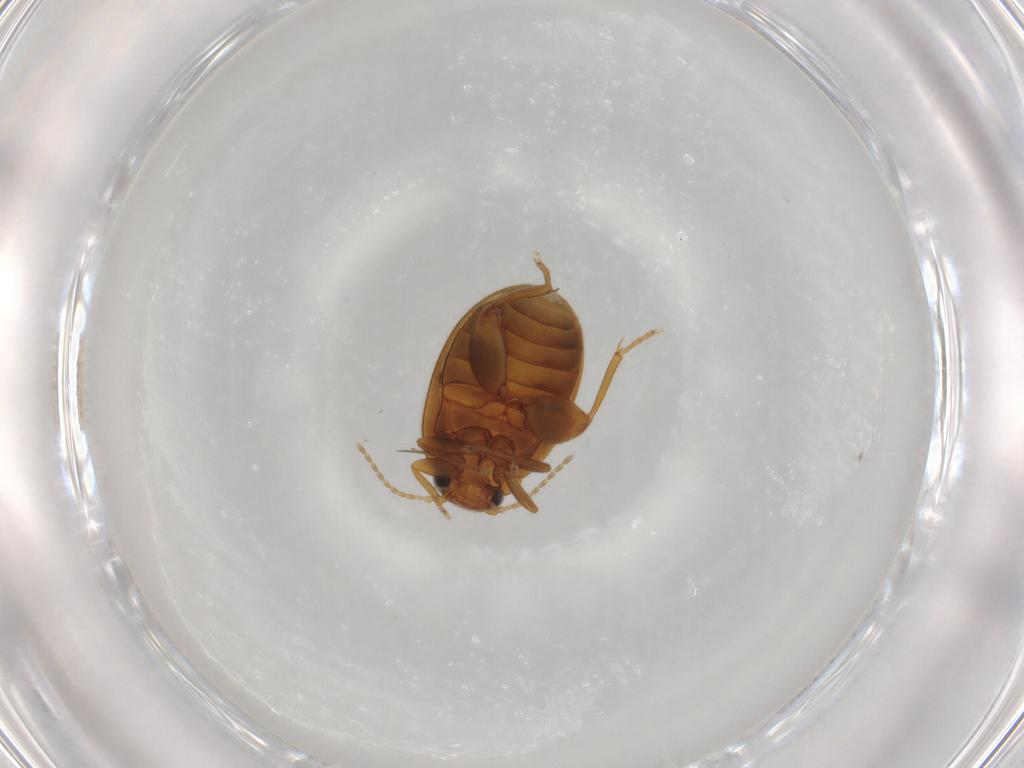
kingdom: Animalia
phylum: Arthropoda
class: Insecta
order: Coleoptera
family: Scirtidae
